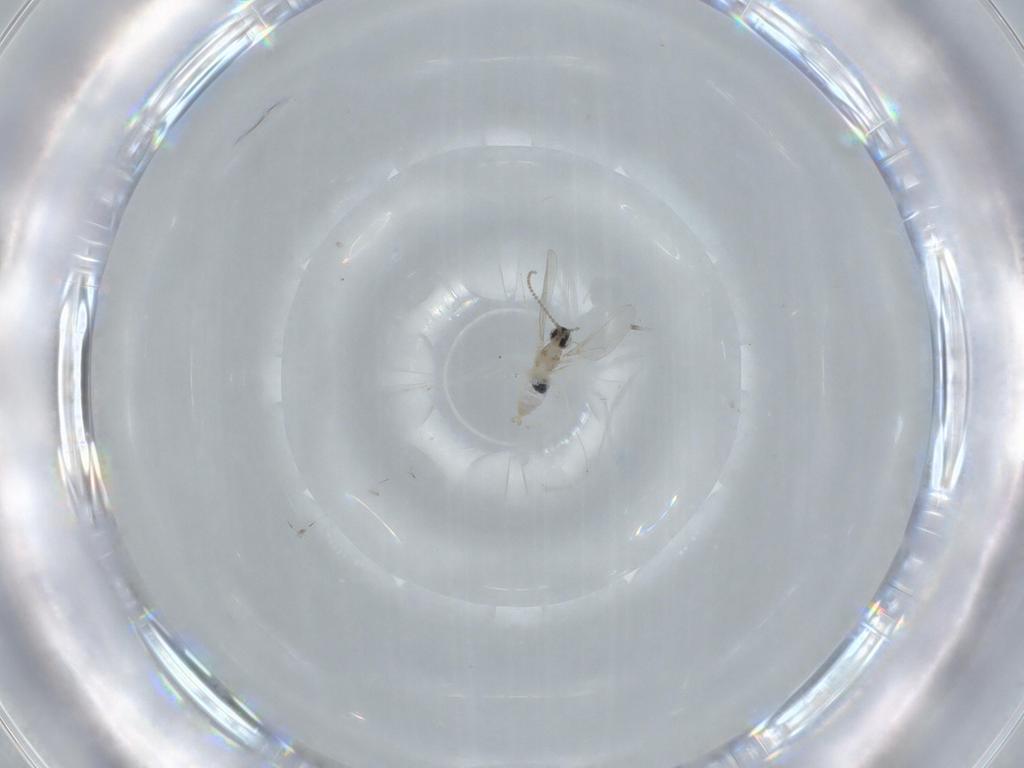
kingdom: Animalia
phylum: Arthropoda
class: Insecta
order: Diptera
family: Cecidomyiidae
